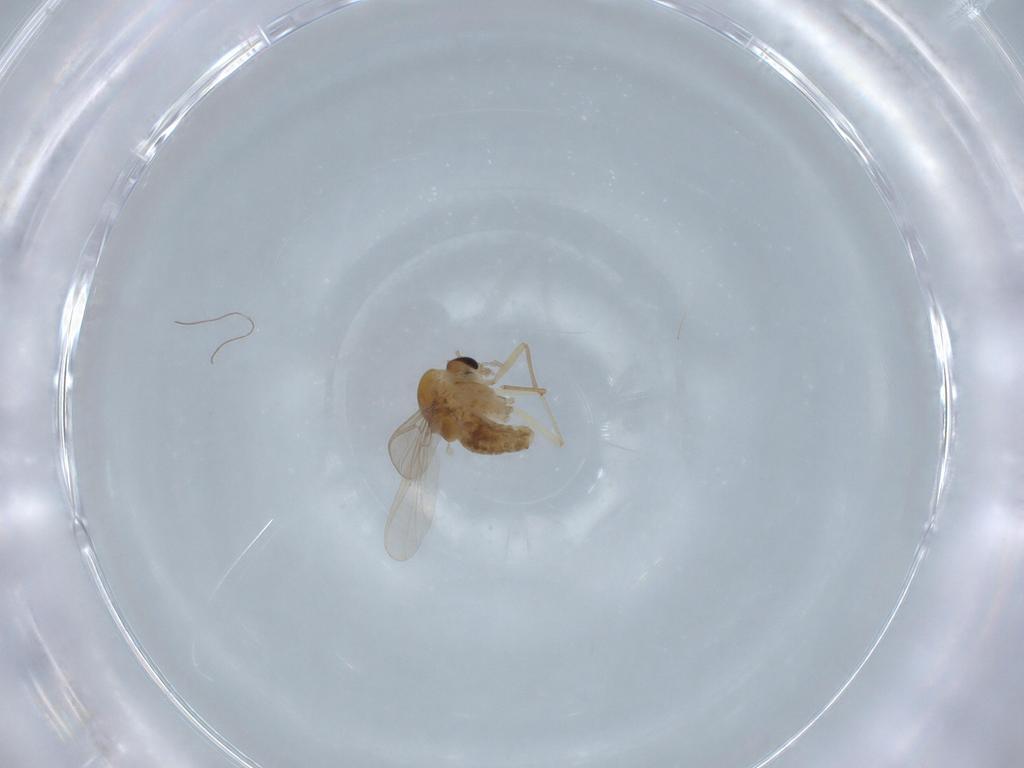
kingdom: Animalia
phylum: Arthropoda
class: Insecta
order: Diptera
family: Chironomidae
